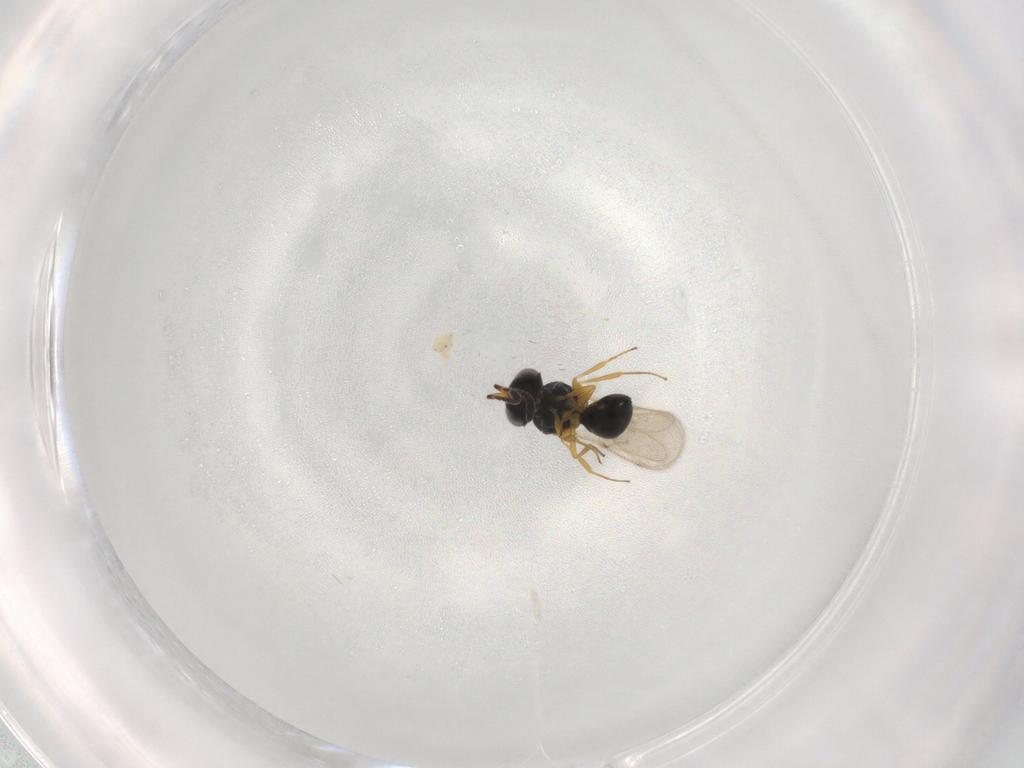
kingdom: Animalia
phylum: Arthropoda
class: Insecta
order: Hymenoptera
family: Scelionidae
